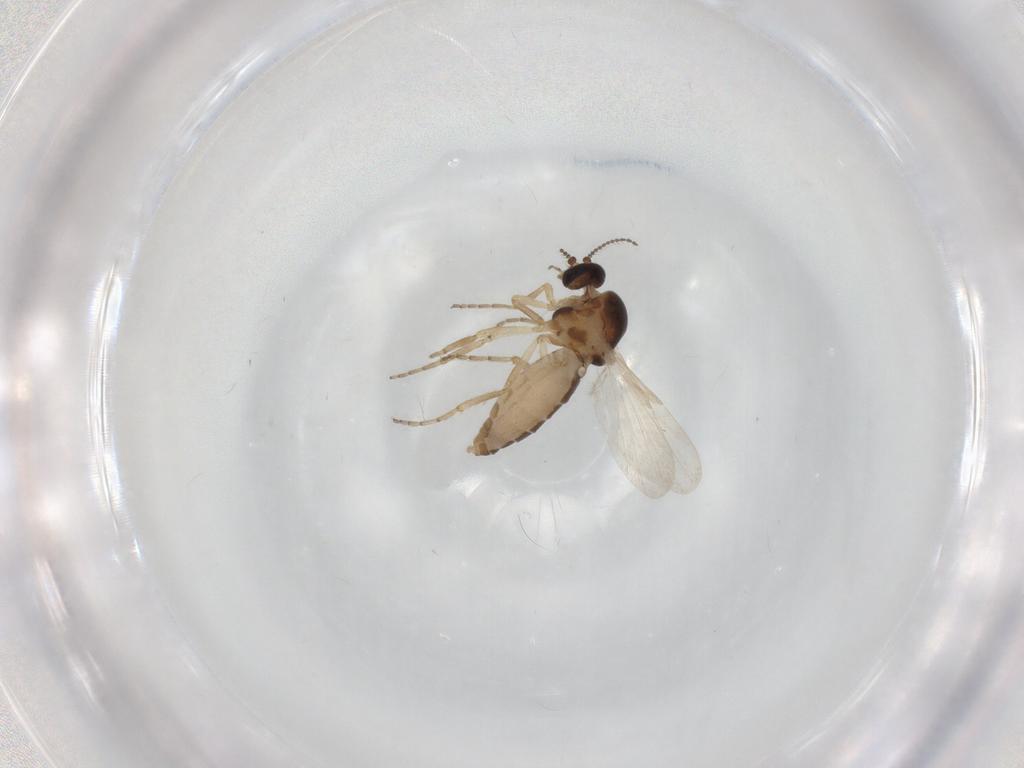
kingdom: Animalia
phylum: Arthropoda
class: Insecta
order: Diptera
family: Ceratopogonidae
